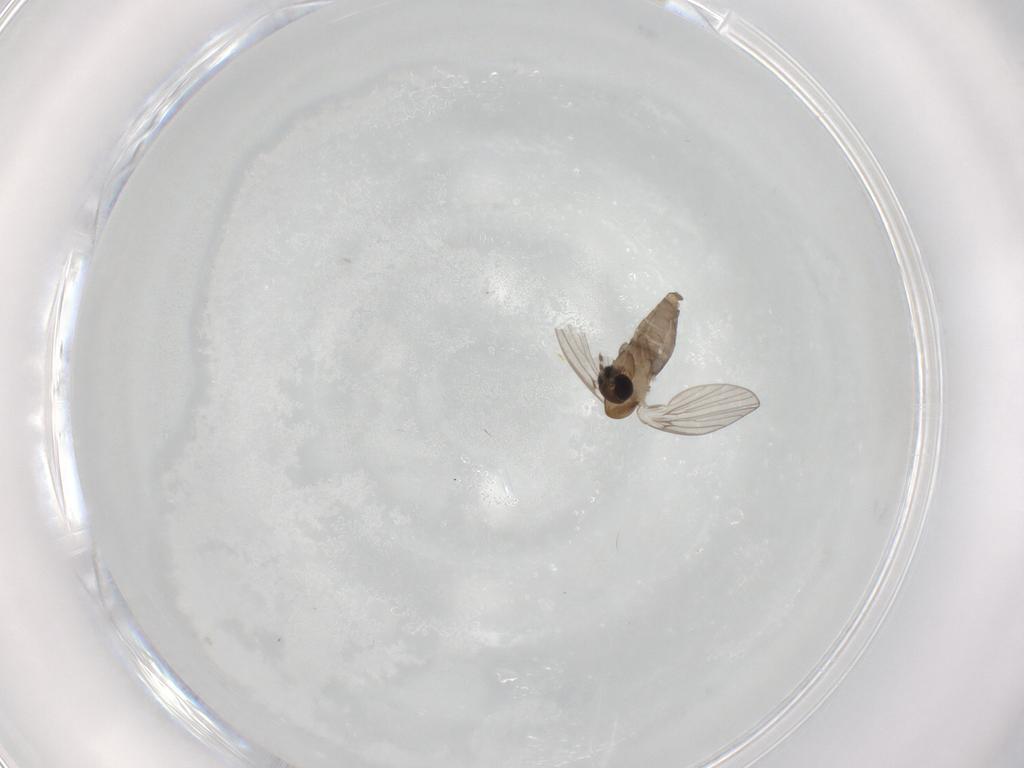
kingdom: Animalia
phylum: Arthropoda
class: Insecta
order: Diptera
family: Psychodidae
